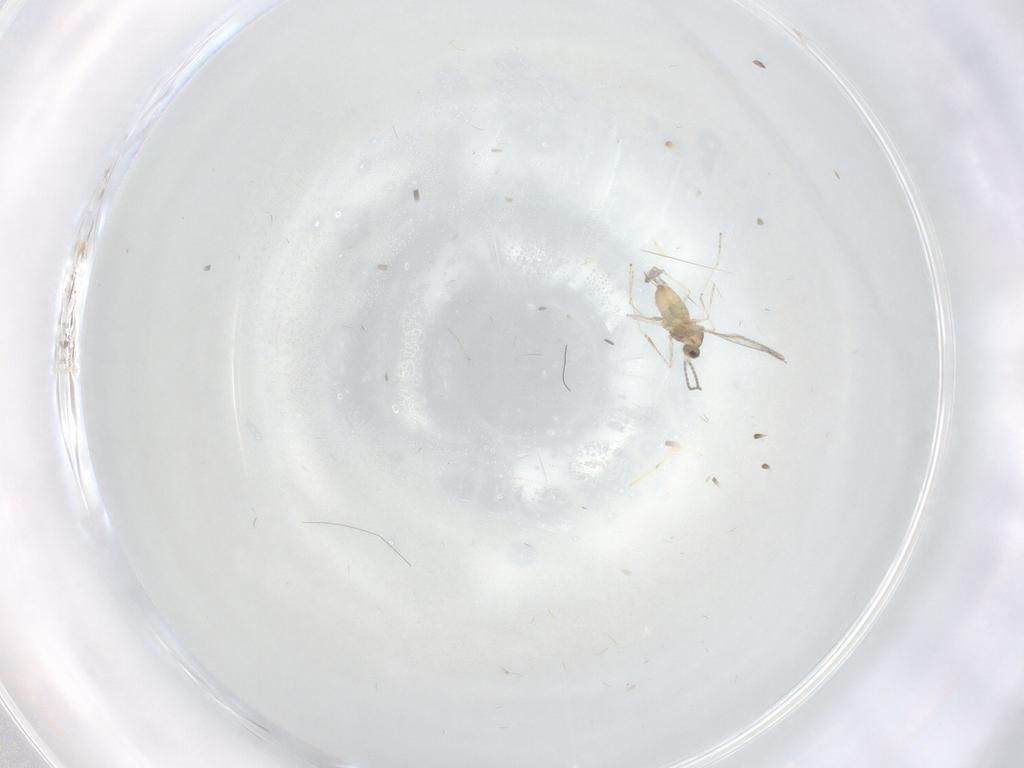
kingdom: Animalia
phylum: Arthropoda
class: Insecta
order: Diptera
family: Cecidomyiidae
